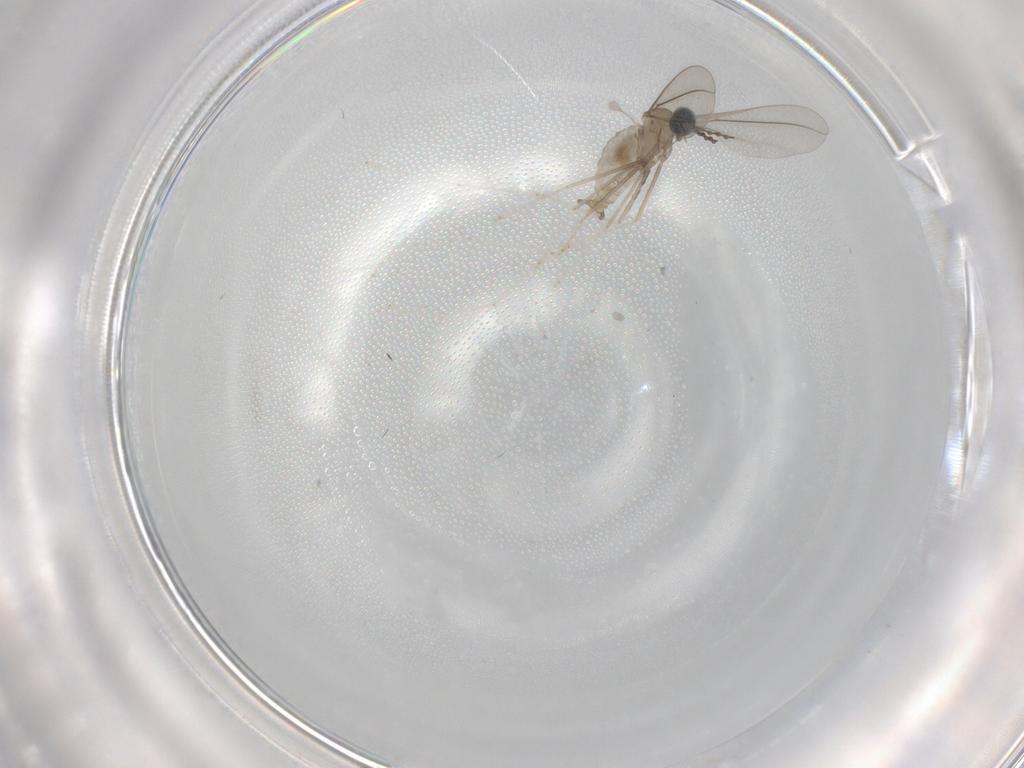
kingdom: Animalia
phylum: Arthropoda
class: Insecta
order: Diptera
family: Cecidomyiidae
